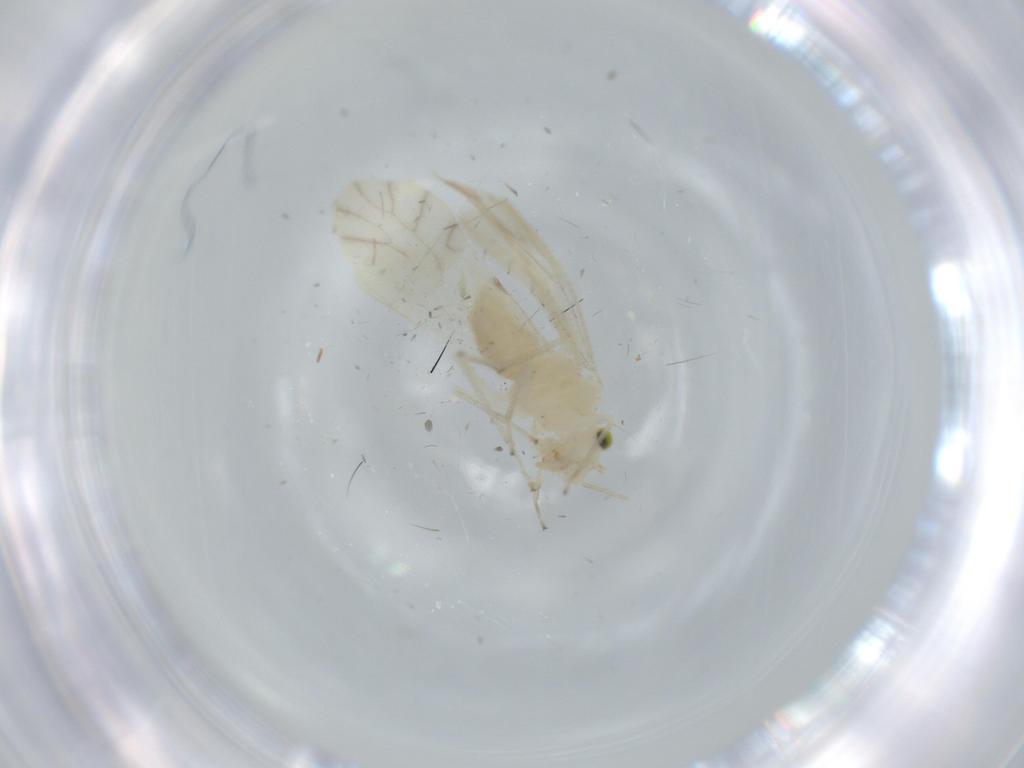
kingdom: Animalia
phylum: Arthropoda
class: Insecta
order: Psocodea
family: Caeciliusidae
